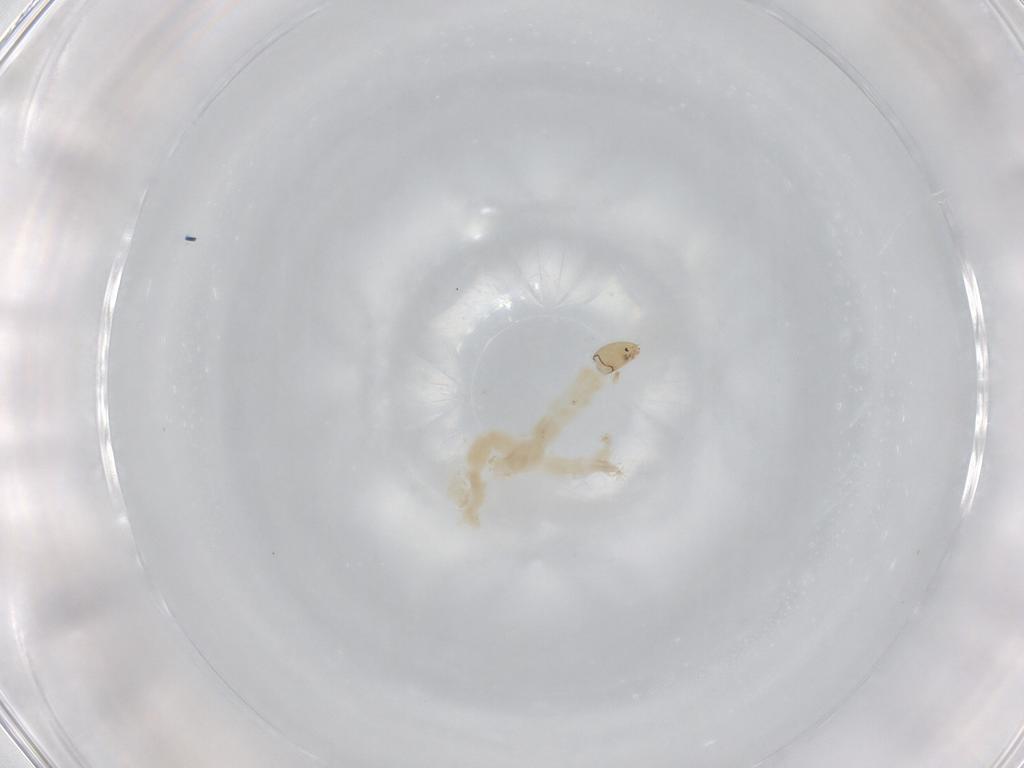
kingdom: Animalia
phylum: Arthropoda
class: Insecta
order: Diptera
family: Chironomidae
